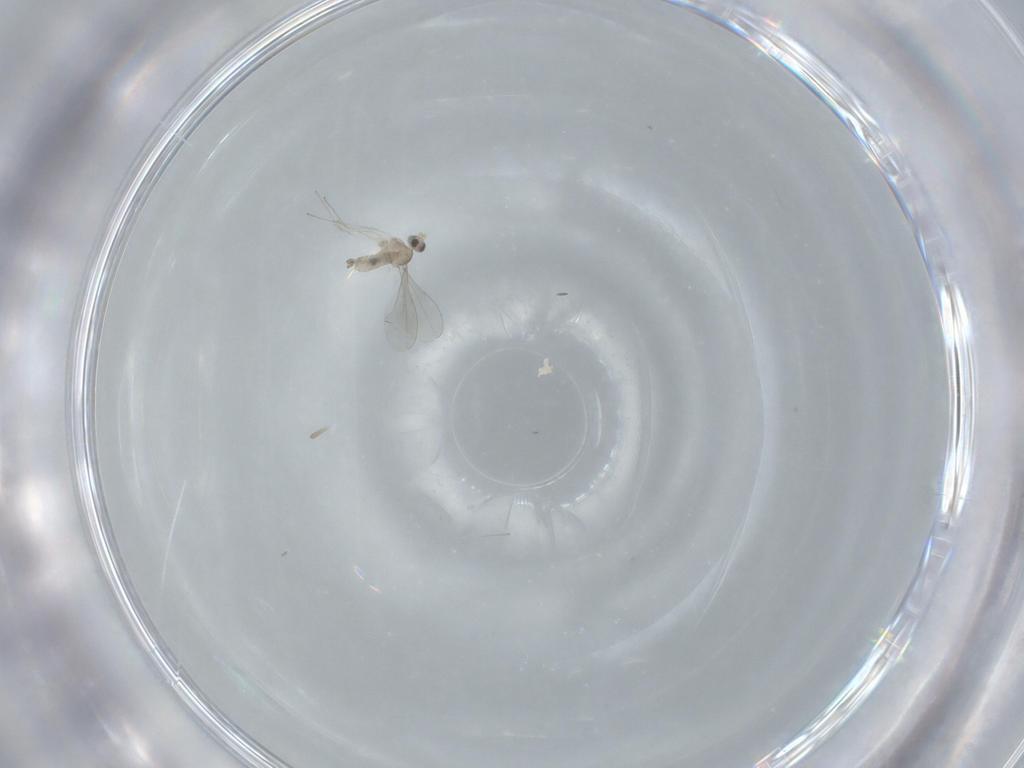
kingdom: Animalia
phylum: Arthropoda
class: Insecta
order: Diptera
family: Cecidomyiidae
